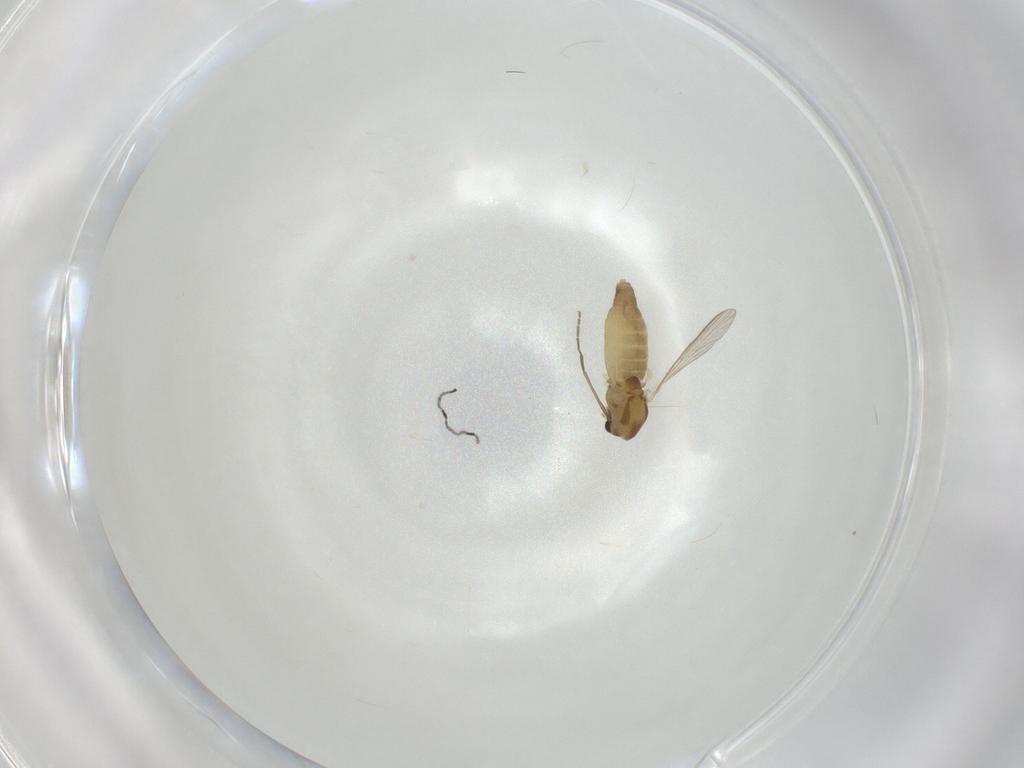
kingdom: Animalia
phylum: Arthropoda
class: Insecta
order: Diptera
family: Chironomidae
